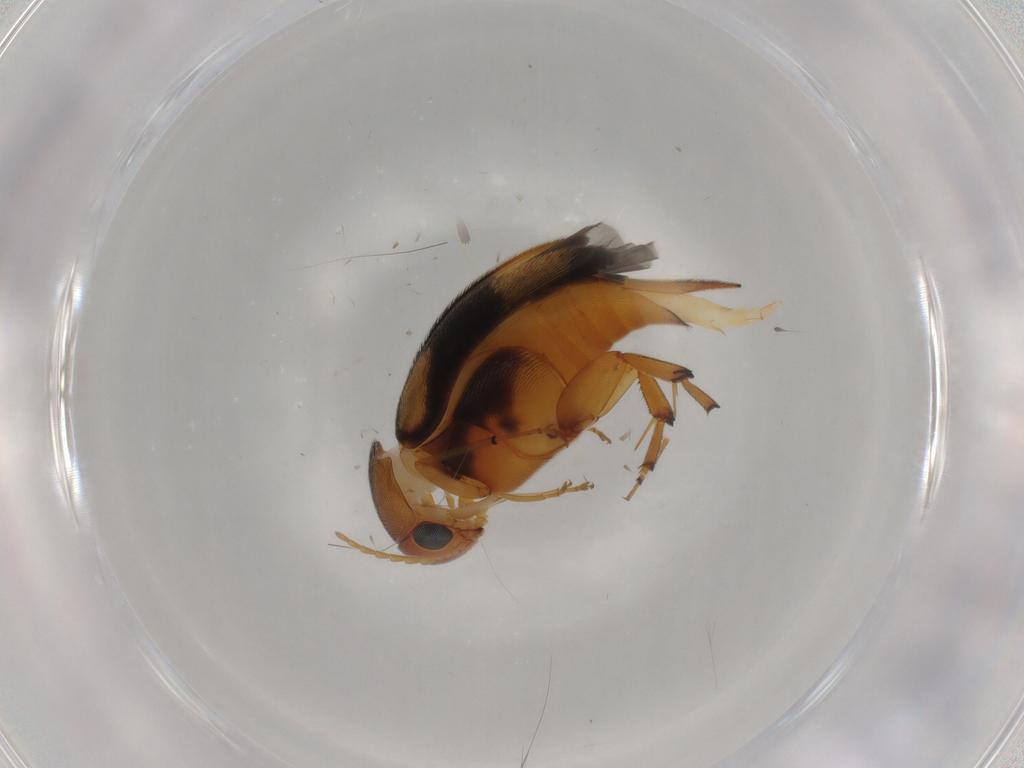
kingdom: Animalia
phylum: Arthropoda
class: Insecta
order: Coleoptera
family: Mordellidae
